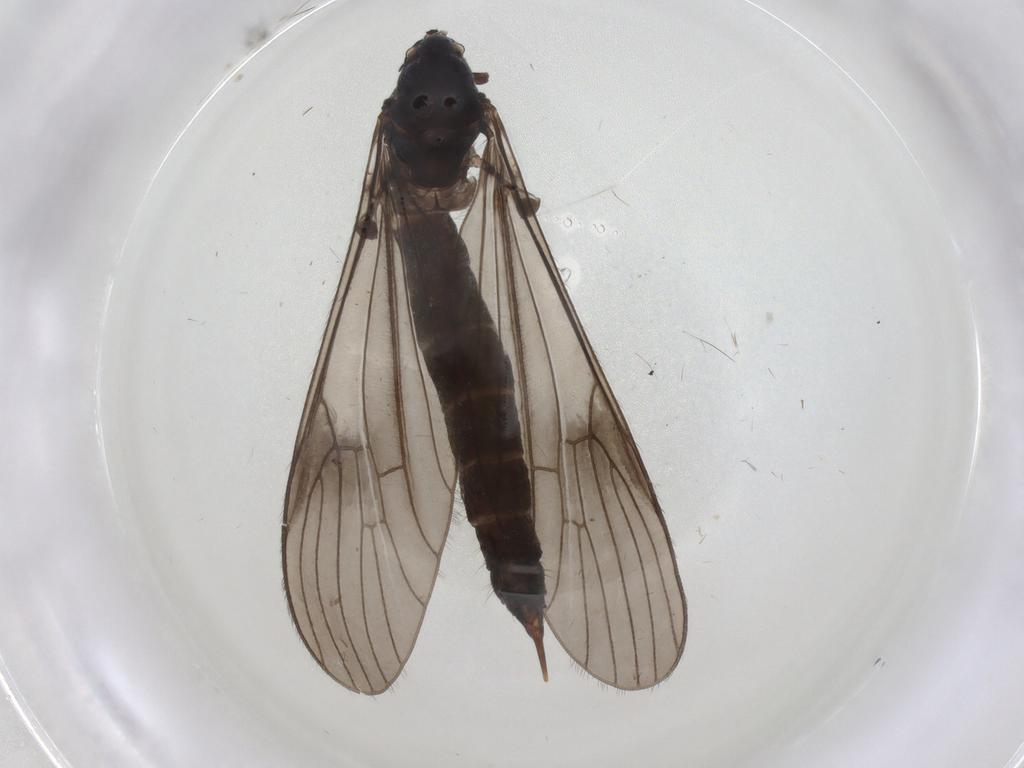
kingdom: Animalia
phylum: Arthropoda
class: Insecta
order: Diptera
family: Limoniidae
